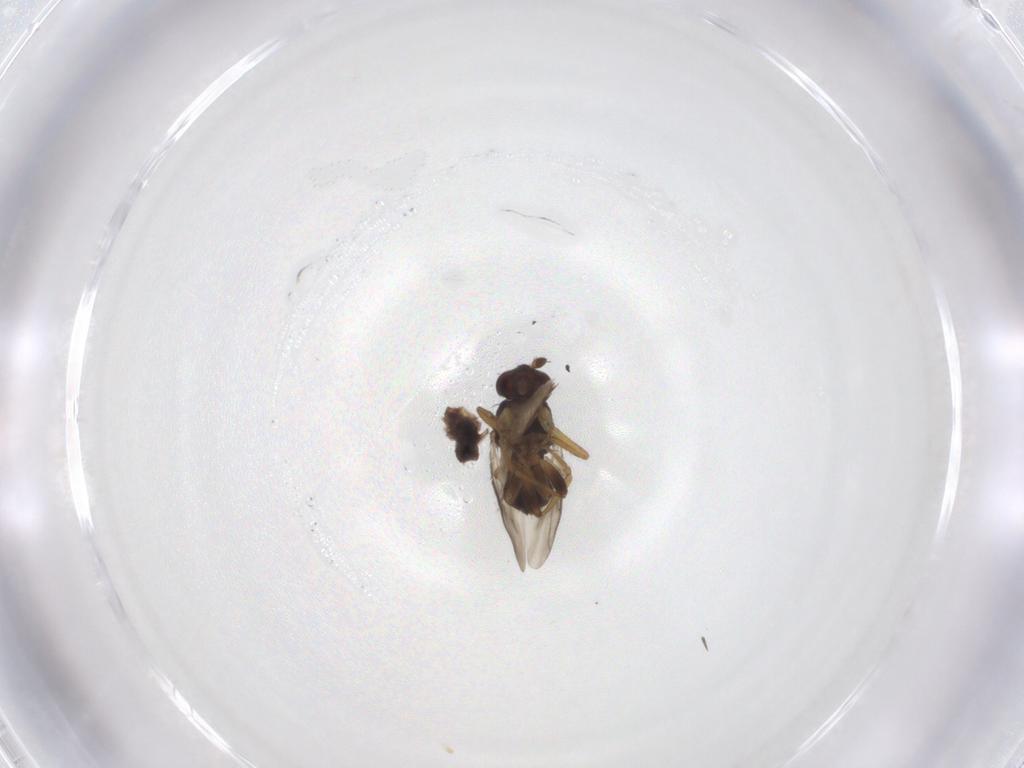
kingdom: Animalia
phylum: Arthropoda
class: Insecta
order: Diptera
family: Sphaeroceridae
